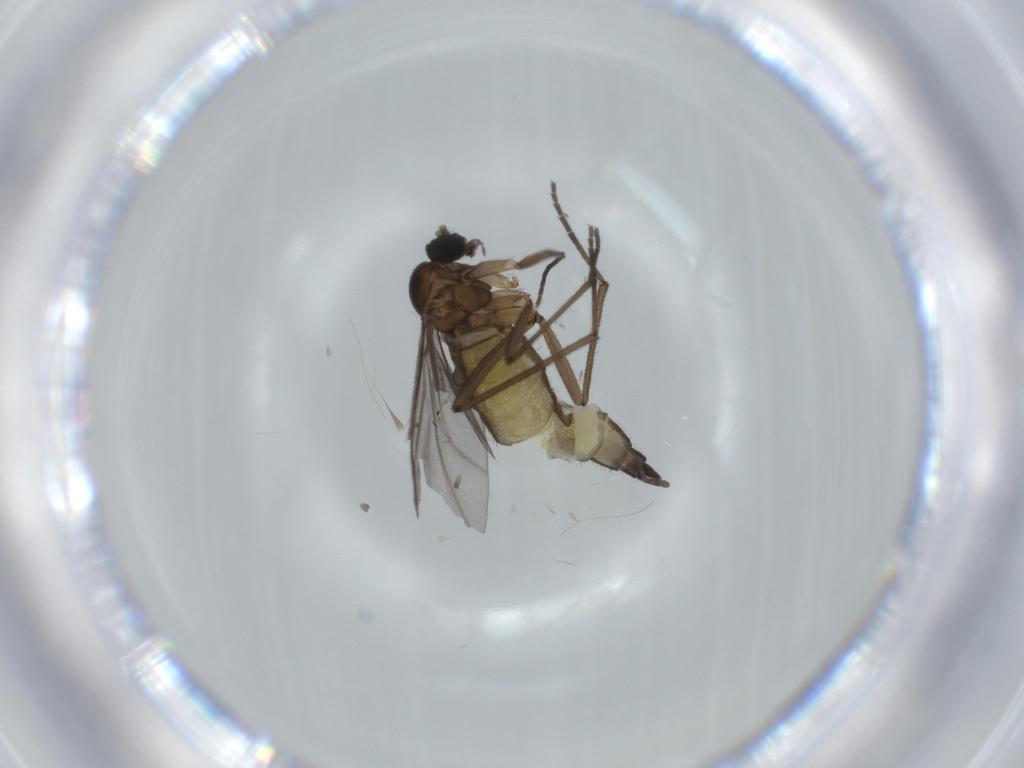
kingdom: Animalia
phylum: Arthropoda
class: Insecta
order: Diptera
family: Sciaridae
